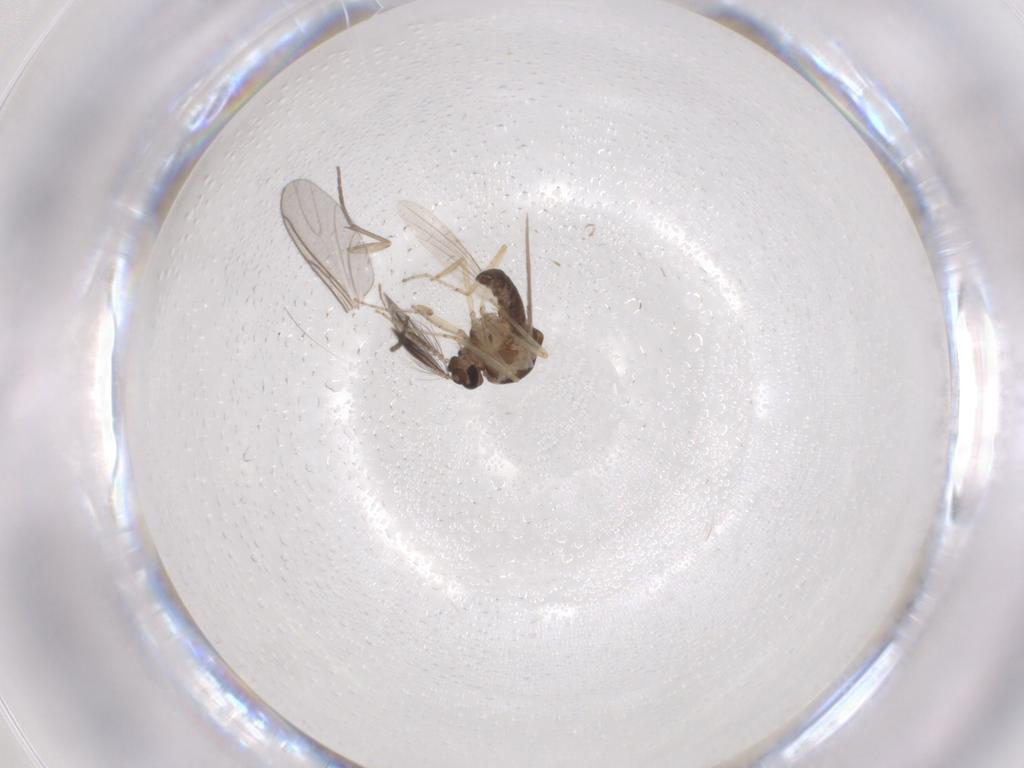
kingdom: Animalia
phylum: Arthropoda
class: Insecta
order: Diptera
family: Ceratopogonidae
